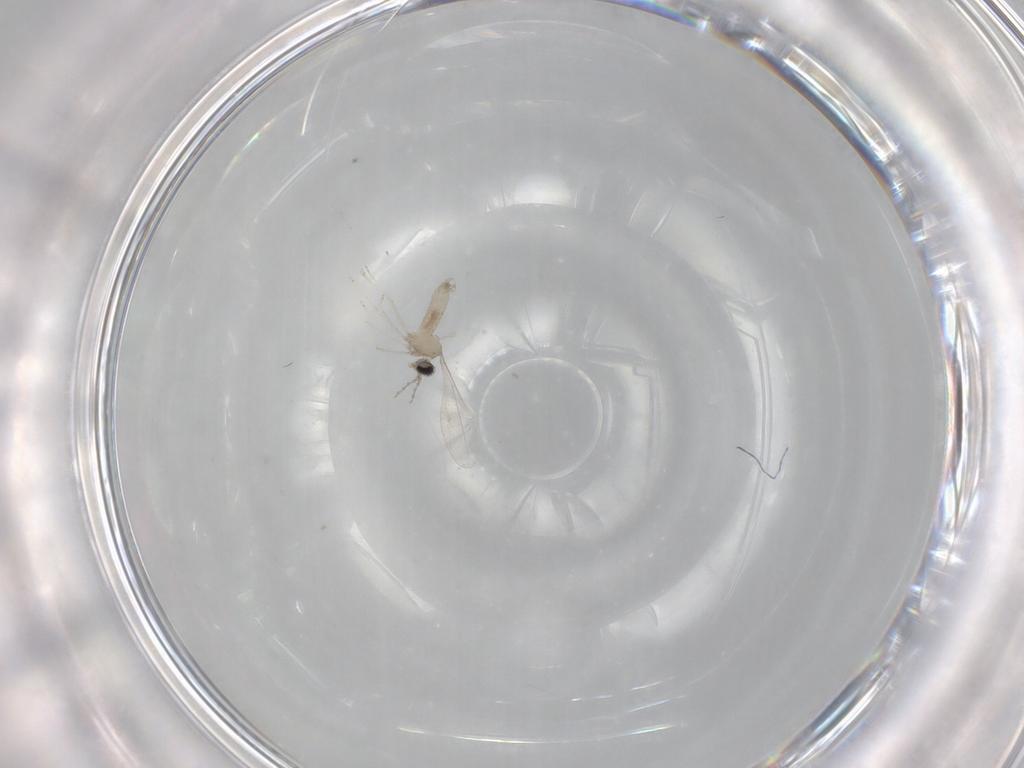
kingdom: Animalia
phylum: Arthropoda
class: Insecta
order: Diptera
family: Cecidomyiidae
